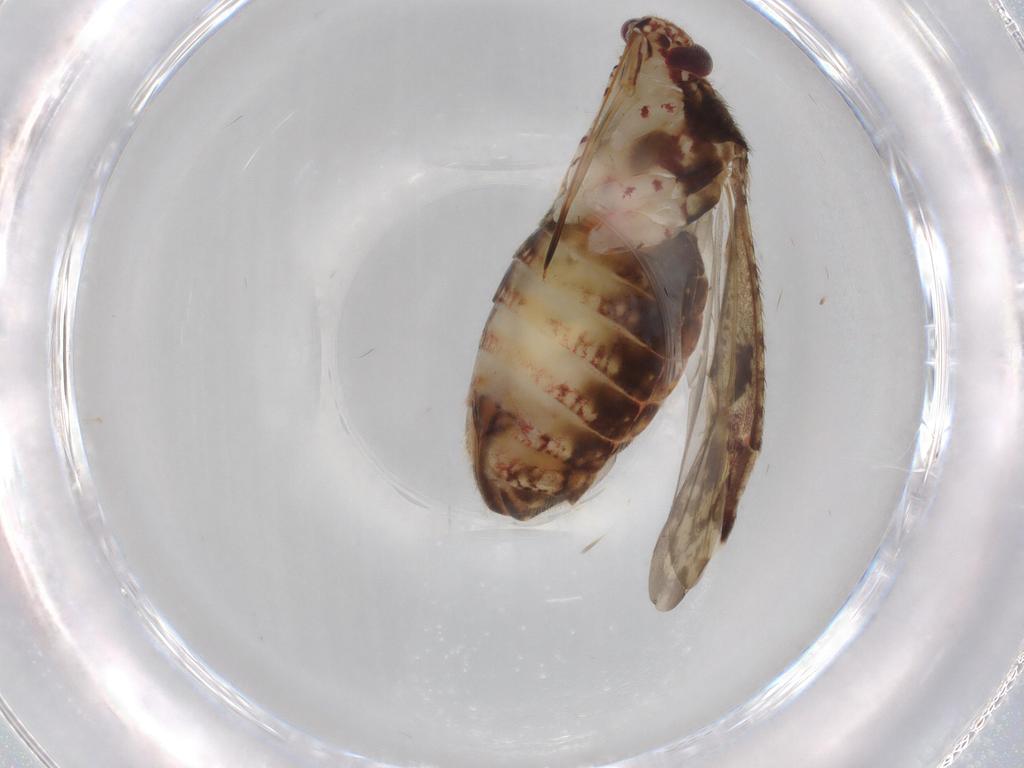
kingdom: Animalia
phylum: Arthropoda
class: Insecta
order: Hemiptera
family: Miridae
